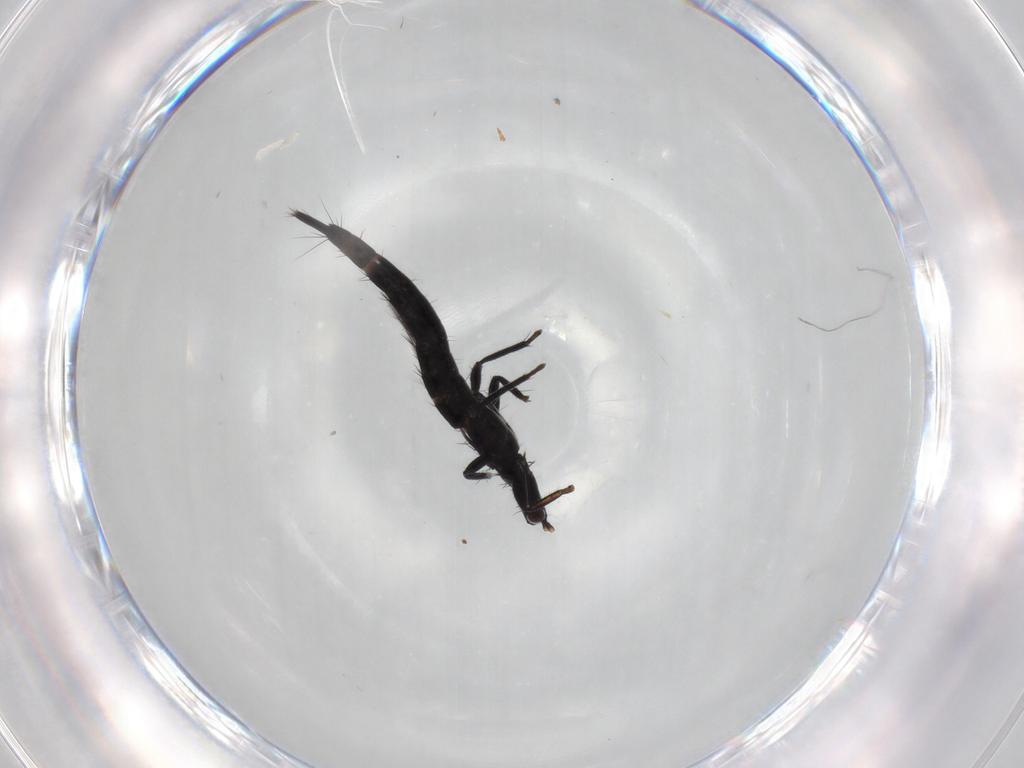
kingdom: Animalia
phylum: Arthropoda
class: Insecta
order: Thysanoptera
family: Phlaeothripidae
